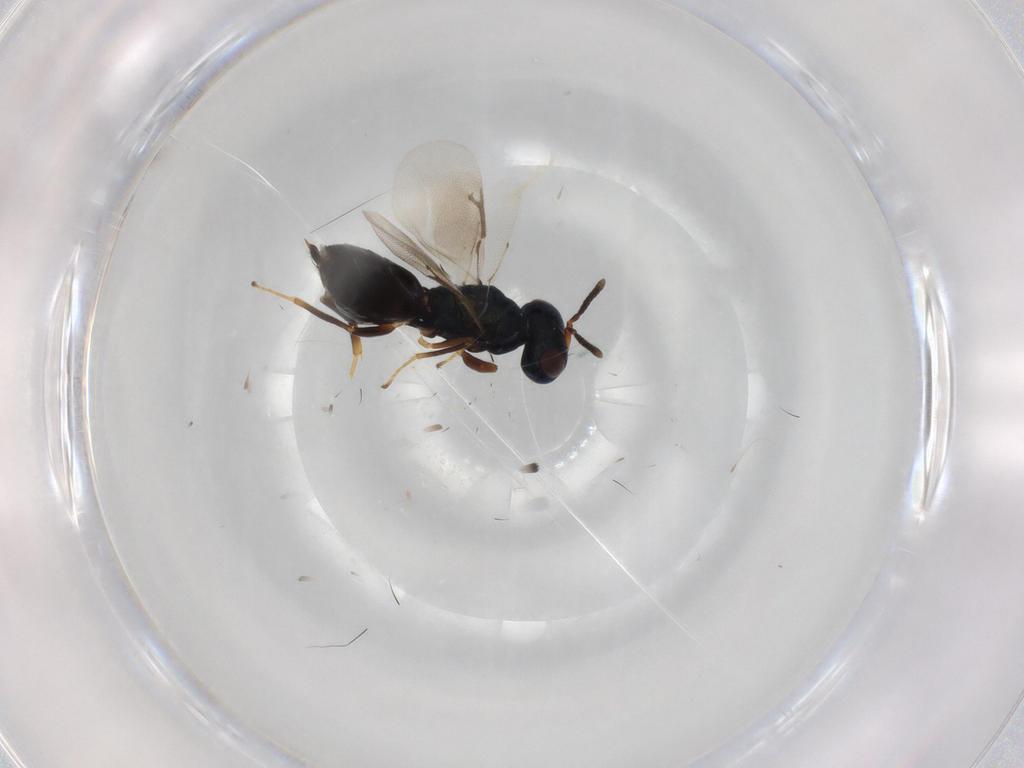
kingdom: Animalia
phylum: Arthropoda
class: Insecta
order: Hymenoptera
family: Pteromalidae
